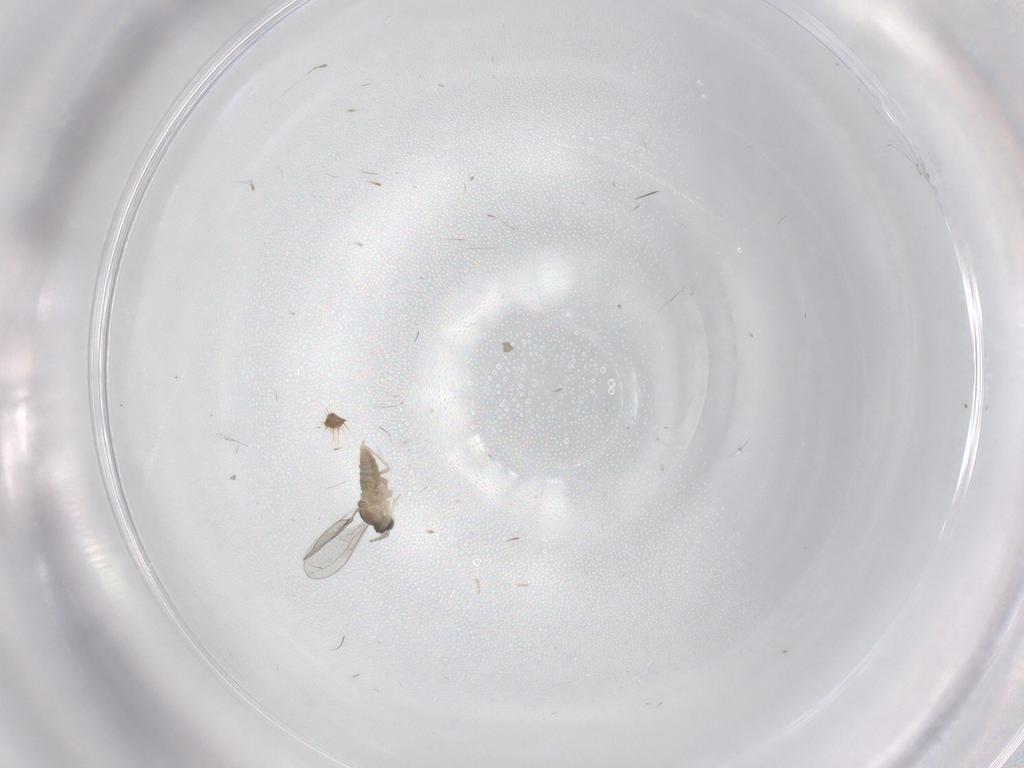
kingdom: Animalia
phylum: Arthropoda
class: Insecta
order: Diptera
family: Cecidomyiidae
